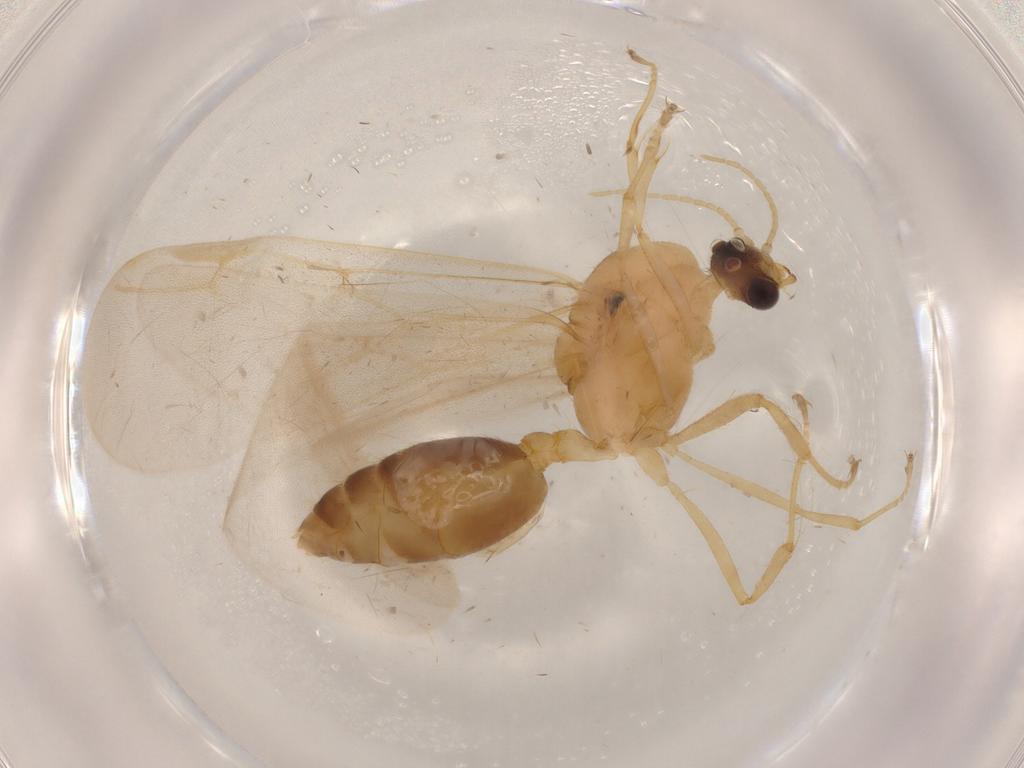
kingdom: Animalia
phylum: Arthropoda
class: Insecta
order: Hymenoptera
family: Formicidae
